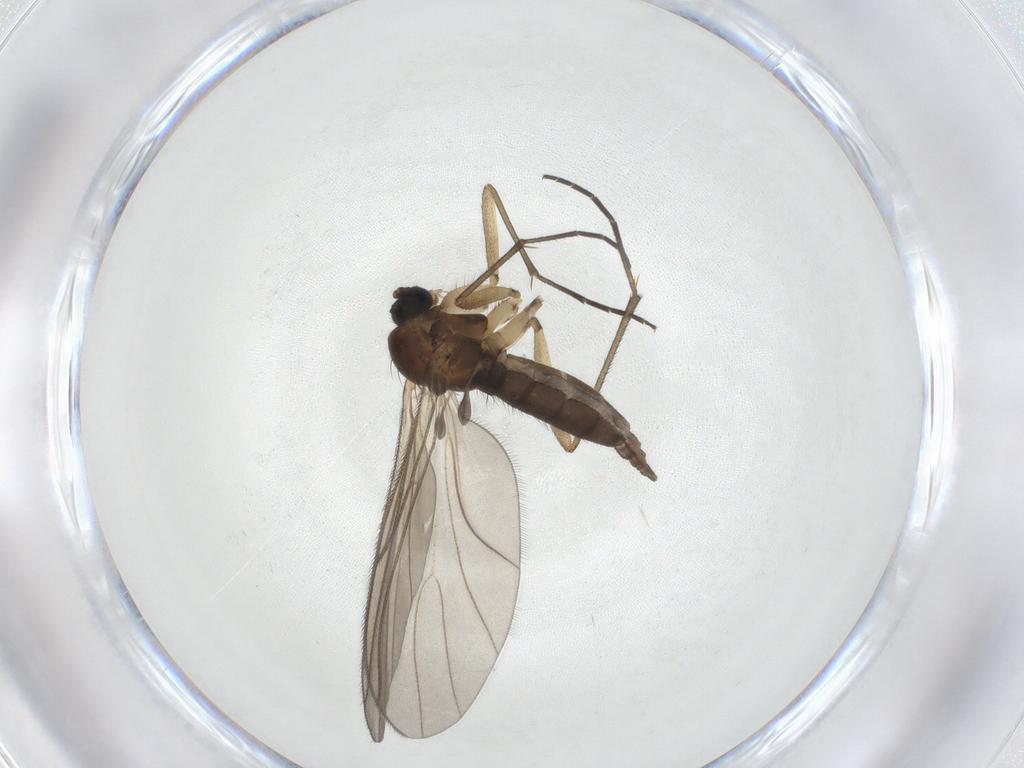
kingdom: Animalia
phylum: Arthropoda
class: Insecta
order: Diptera
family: Sciaridae
